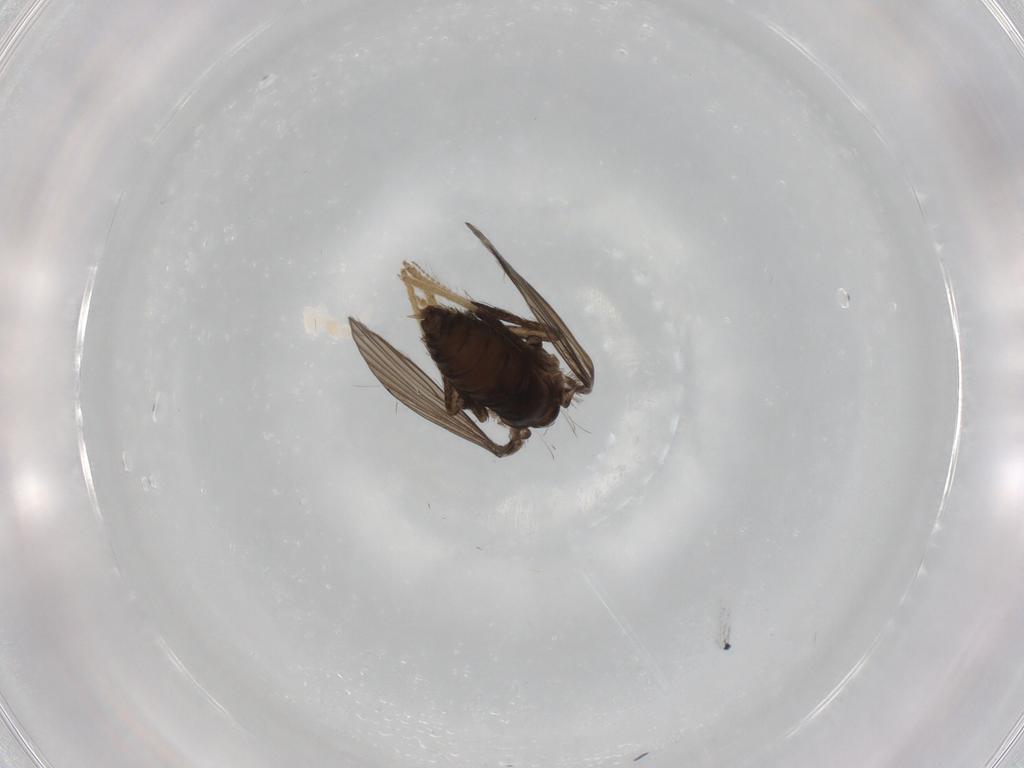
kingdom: Animalia
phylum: Arthropoda
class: Insecta
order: Diptera
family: Psychodidae
